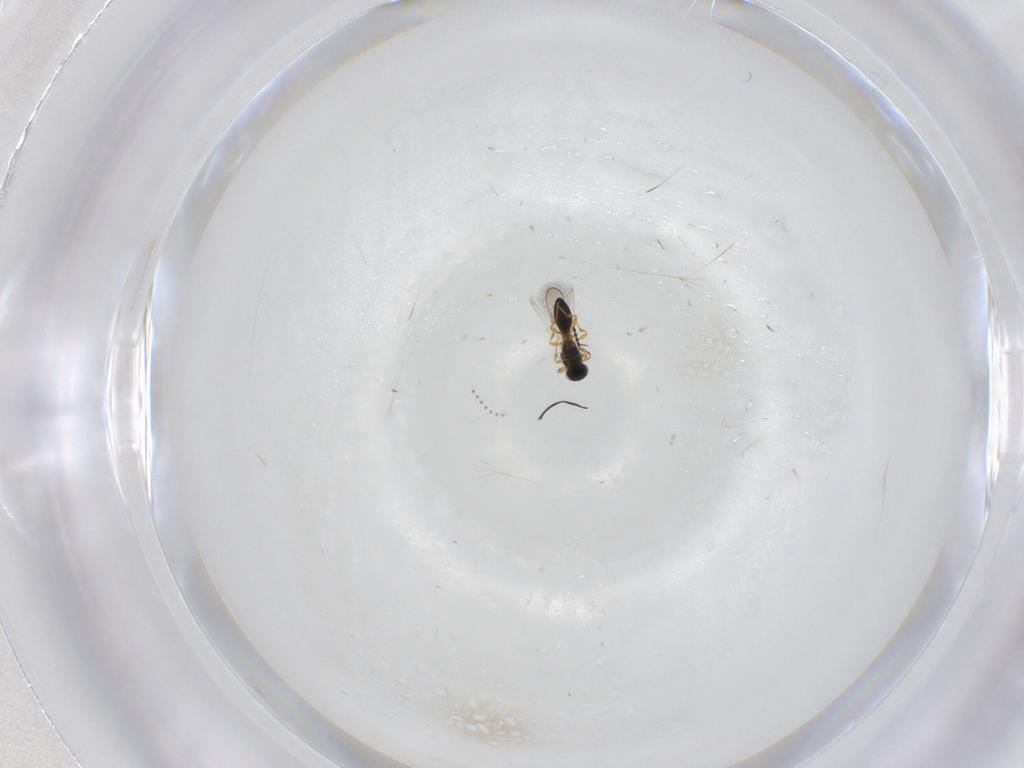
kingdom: Animalia
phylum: Arthropoda
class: Insecta
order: Hymenoptera
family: Platygastridae
